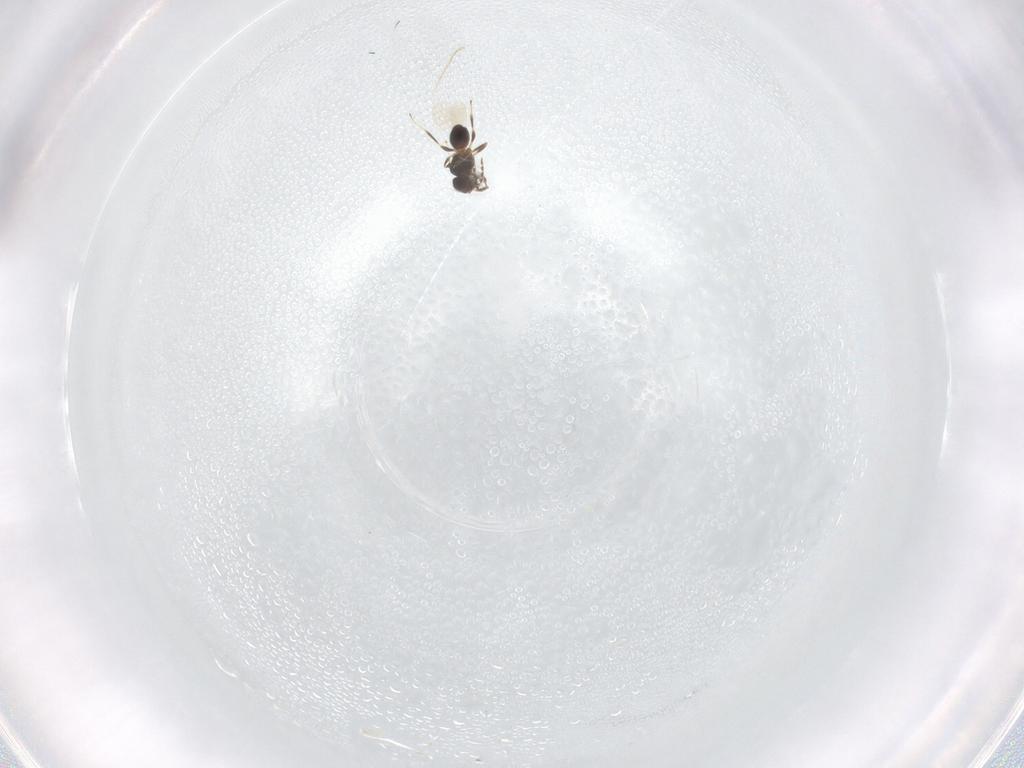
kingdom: Animalia
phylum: Arthropoda
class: Insecta
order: Hymenoptera
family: Platygastridae
